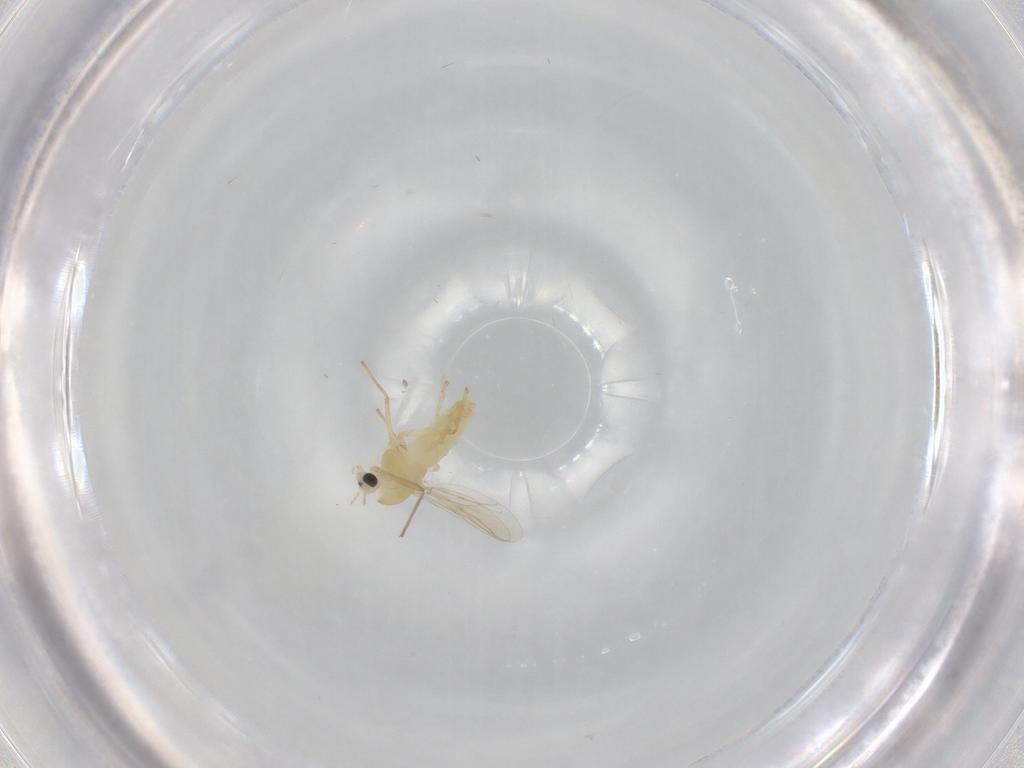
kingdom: Animalia
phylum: Arthropoda
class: Insecta
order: Diptera
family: Chironomidae
